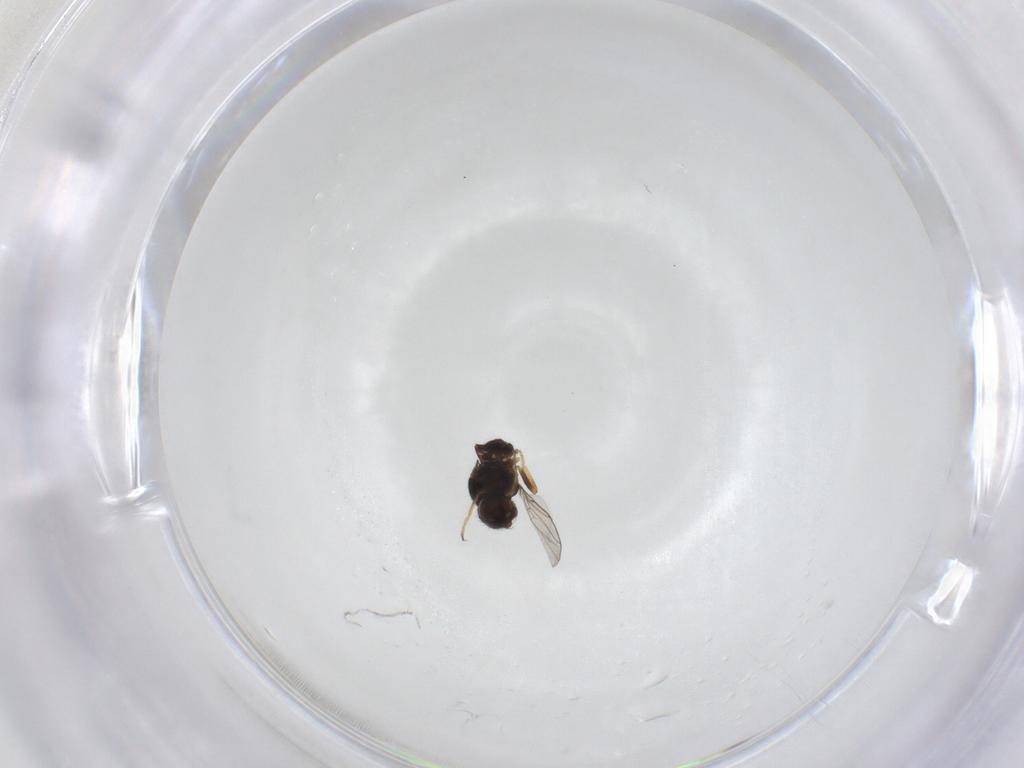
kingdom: Animalia
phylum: Arthropoda
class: Insecta
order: Diptera
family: Chloropidae
